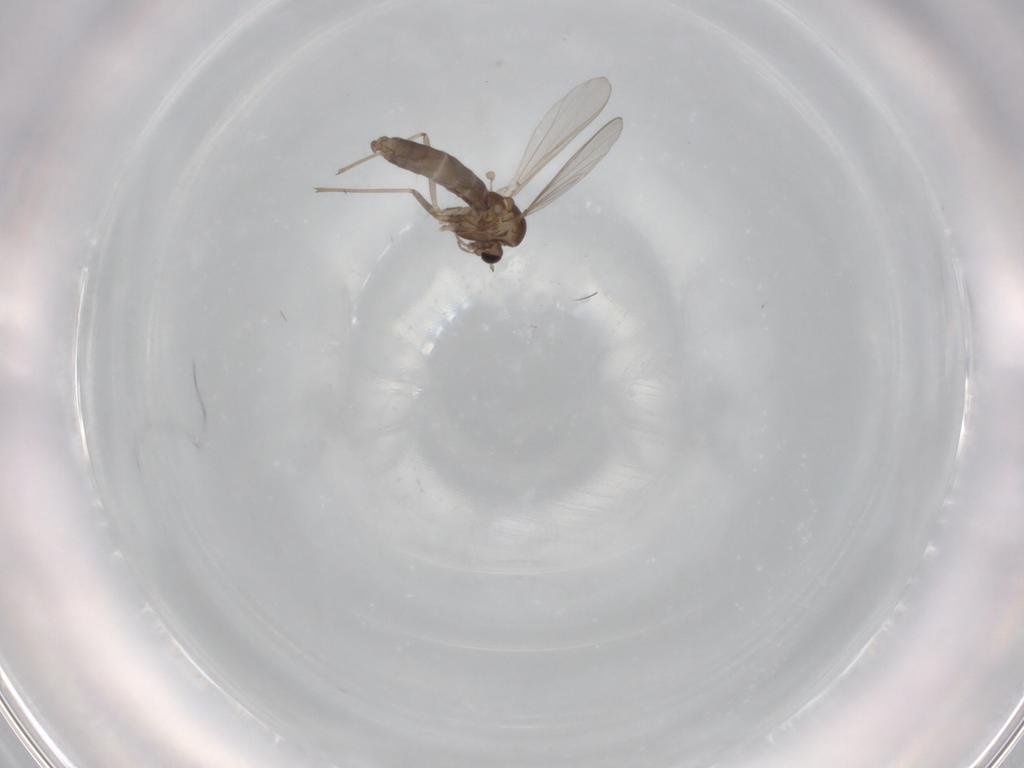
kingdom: Animalia
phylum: Arthropoda
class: Insecta
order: Diptera
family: Chironomidae
